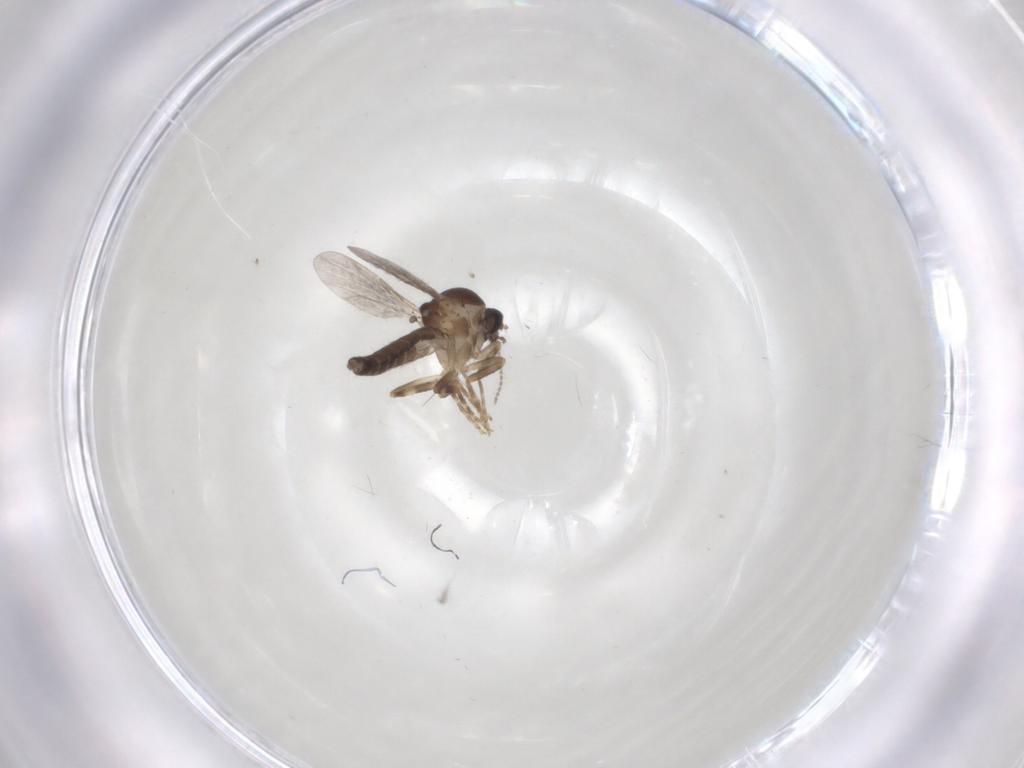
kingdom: Animalia
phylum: Arthropoda
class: Insecta
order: Diptera
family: Ceratopogonidae
